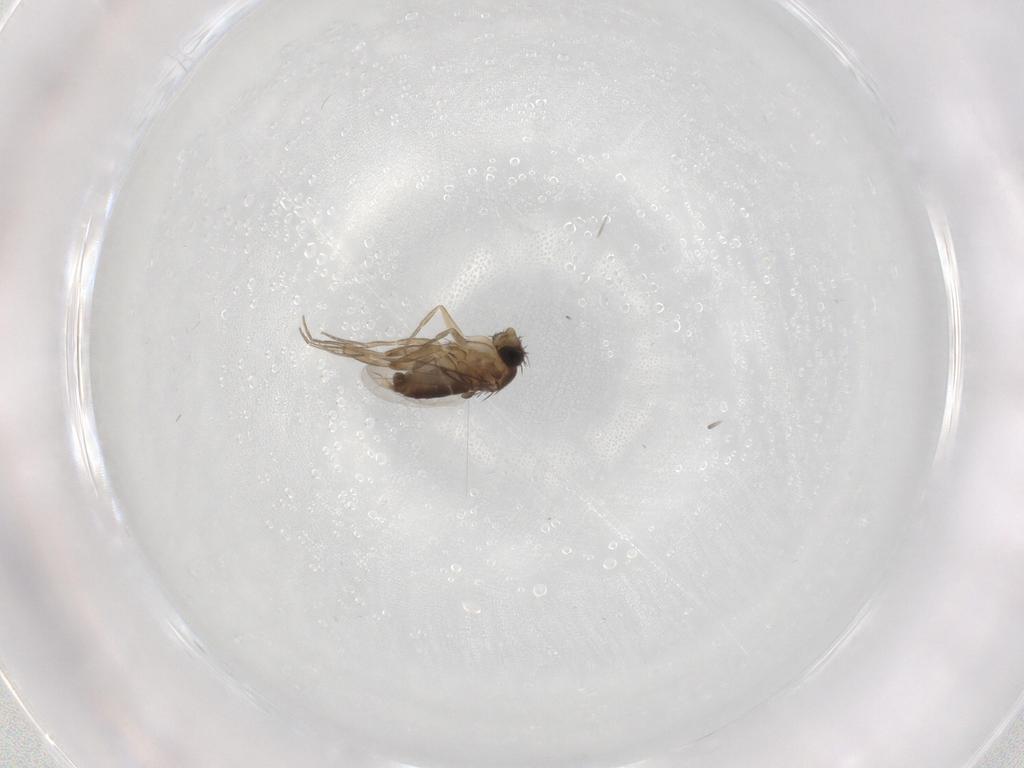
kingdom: Animalia
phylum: Arthropoda
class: Insecta
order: Diptera
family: Phoridae
